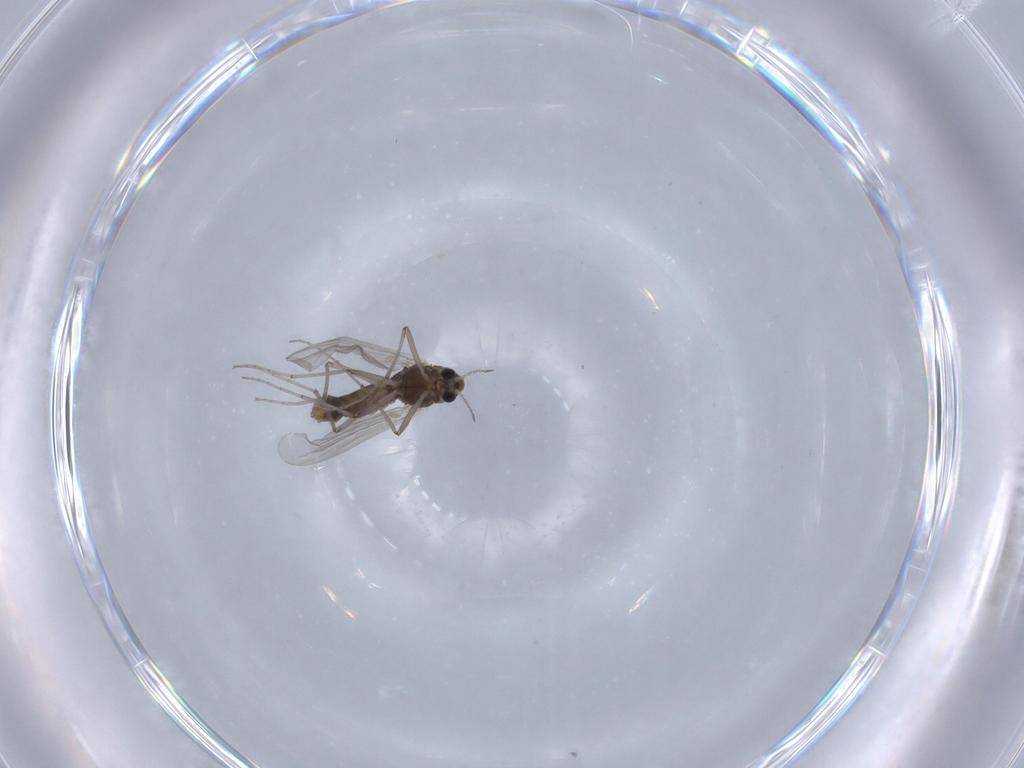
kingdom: Animalia
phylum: Arthropoda
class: Insecta
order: Diptera
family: Chironomidae
